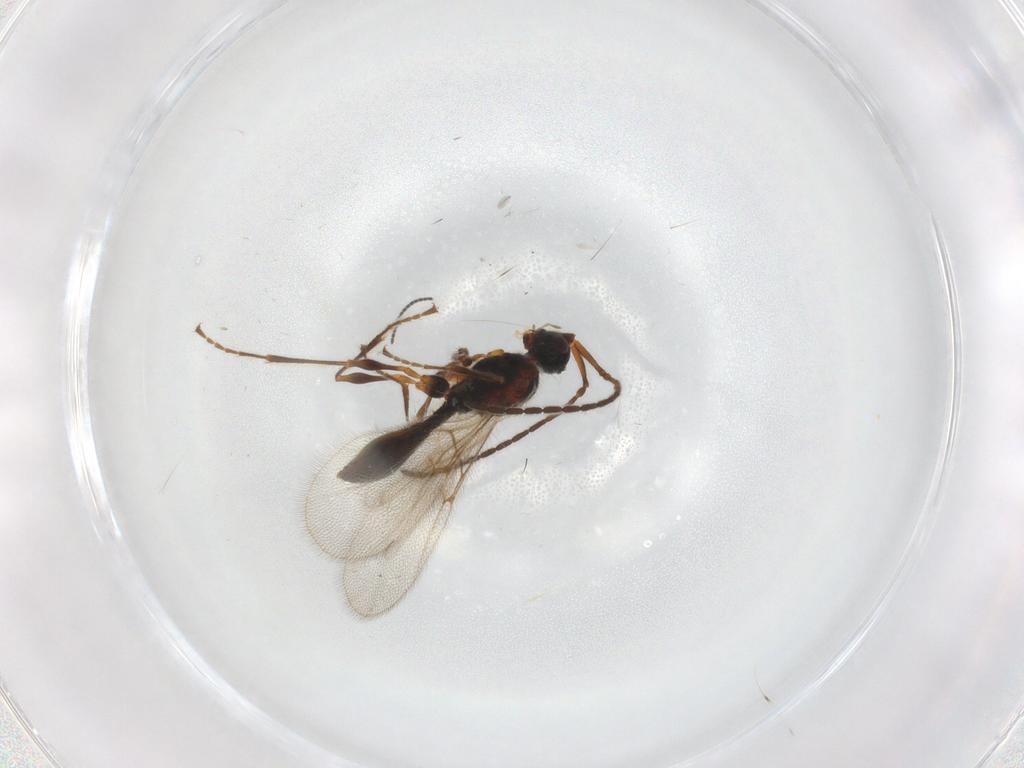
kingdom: Animalia
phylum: Arthropoda
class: Insecta
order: Hymenoptera
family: Diapriidae
